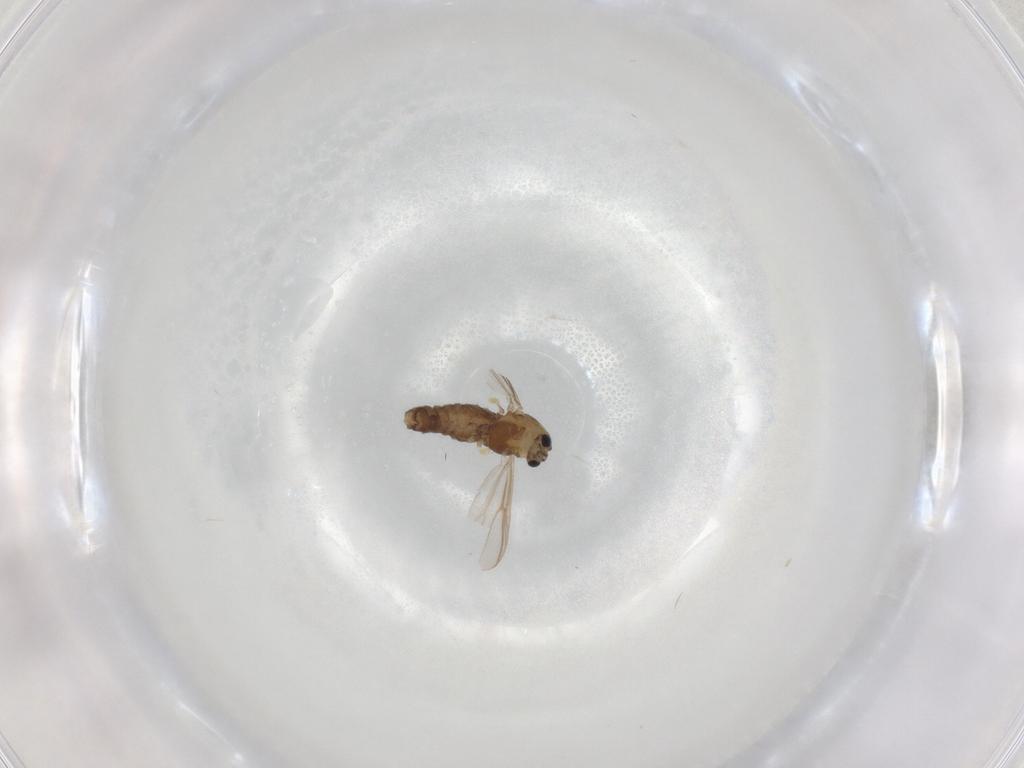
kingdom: Animalia
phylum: Arthropoda
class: Insecta
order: Diptera
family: Chironomidae
